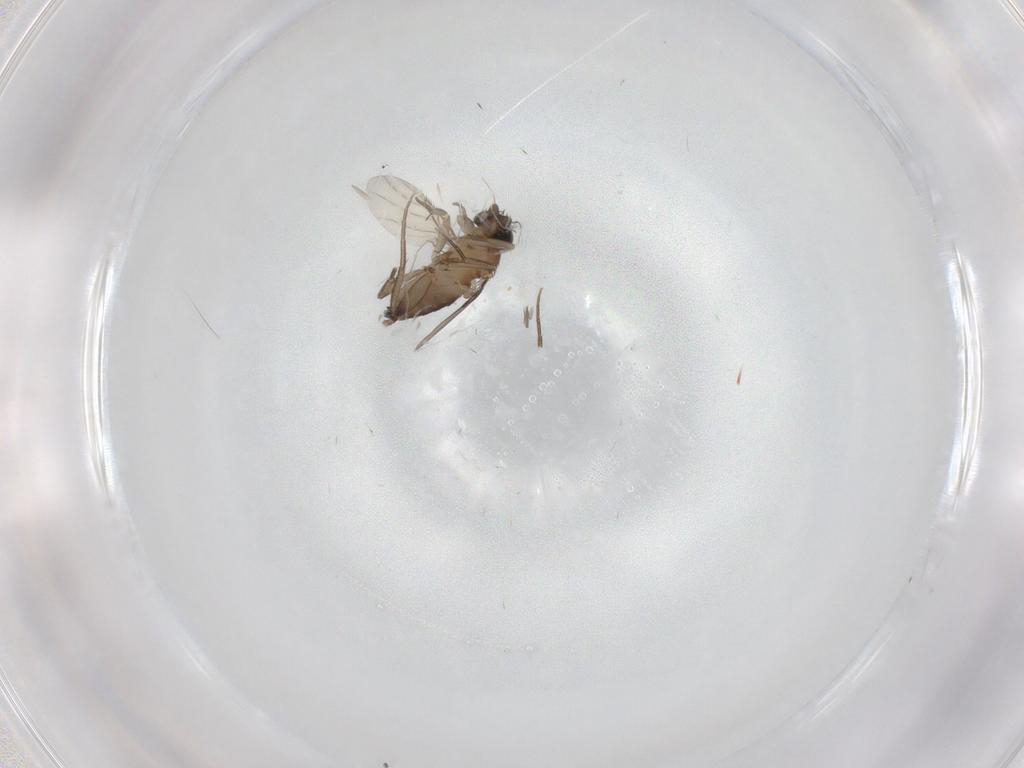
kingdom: Animalia
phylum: Arthropoda
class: Insecta
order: Diptera
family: Phoridae
